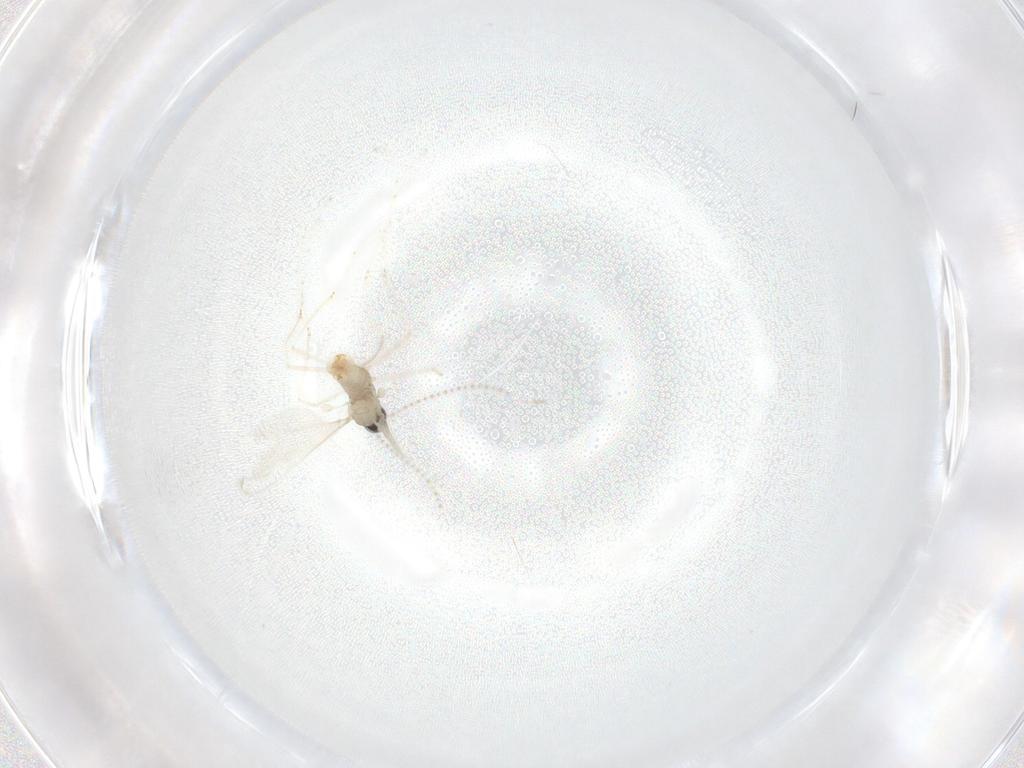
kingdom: Animalia
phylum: Arthropoda
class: Insecta
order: Diptera
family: Cecidomyiidae
